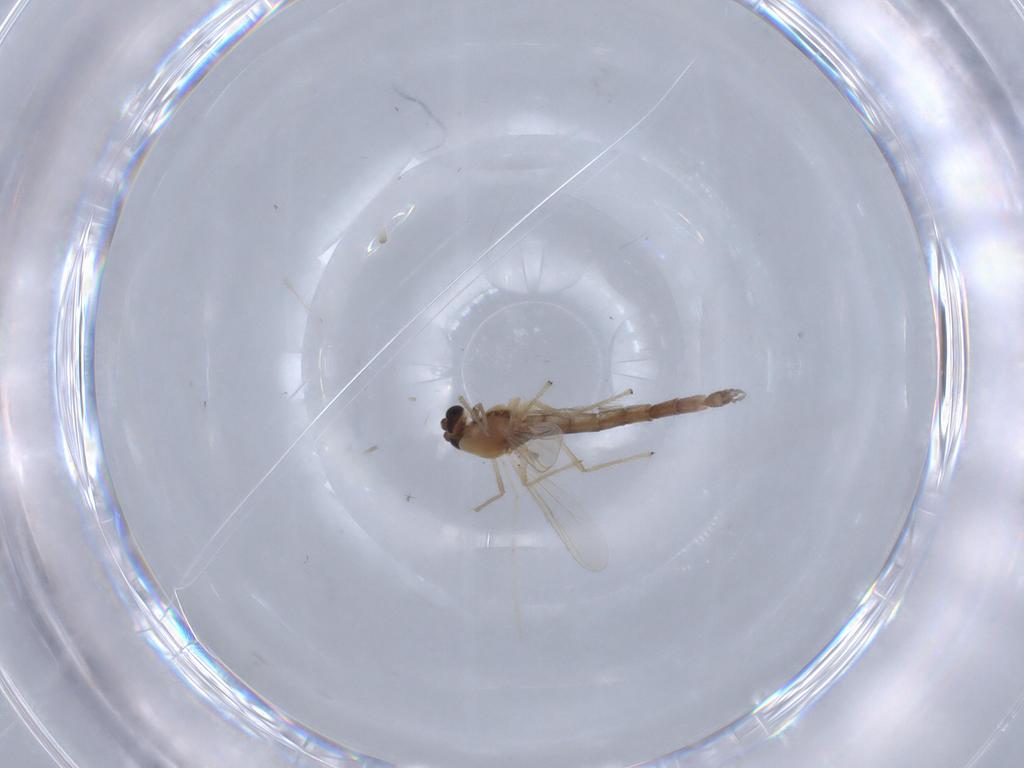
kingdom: Animalia
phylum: Arthropoda
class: Insecta
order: Diptera
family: Chironomidae
